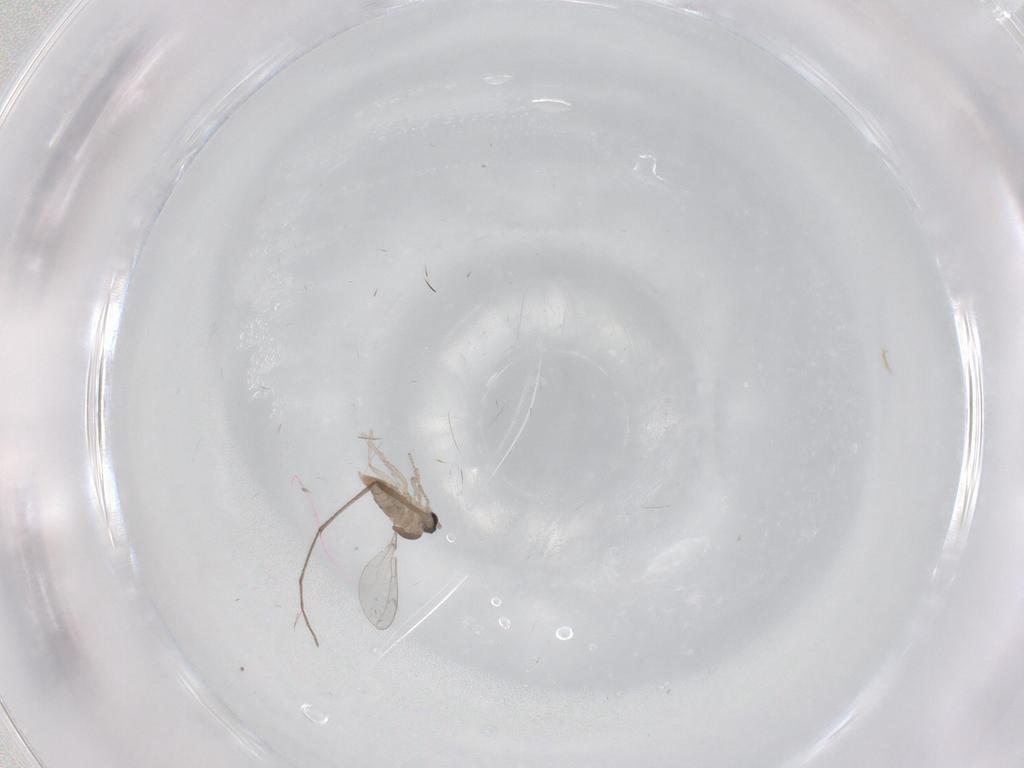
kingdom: Animalia
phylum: Arthropoda
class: Insecta
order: Diptera
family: Cecidomyiidae
